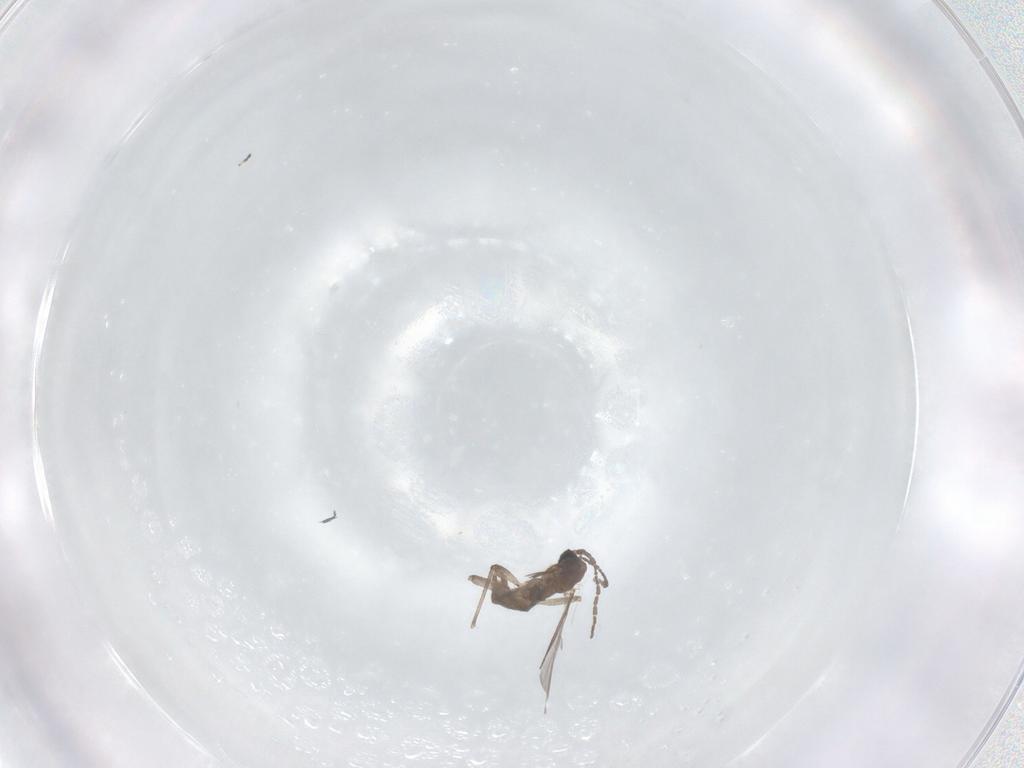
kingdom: Animalia
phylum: Arthropoda
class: Insecta
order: Diptera
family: Sciaridae
